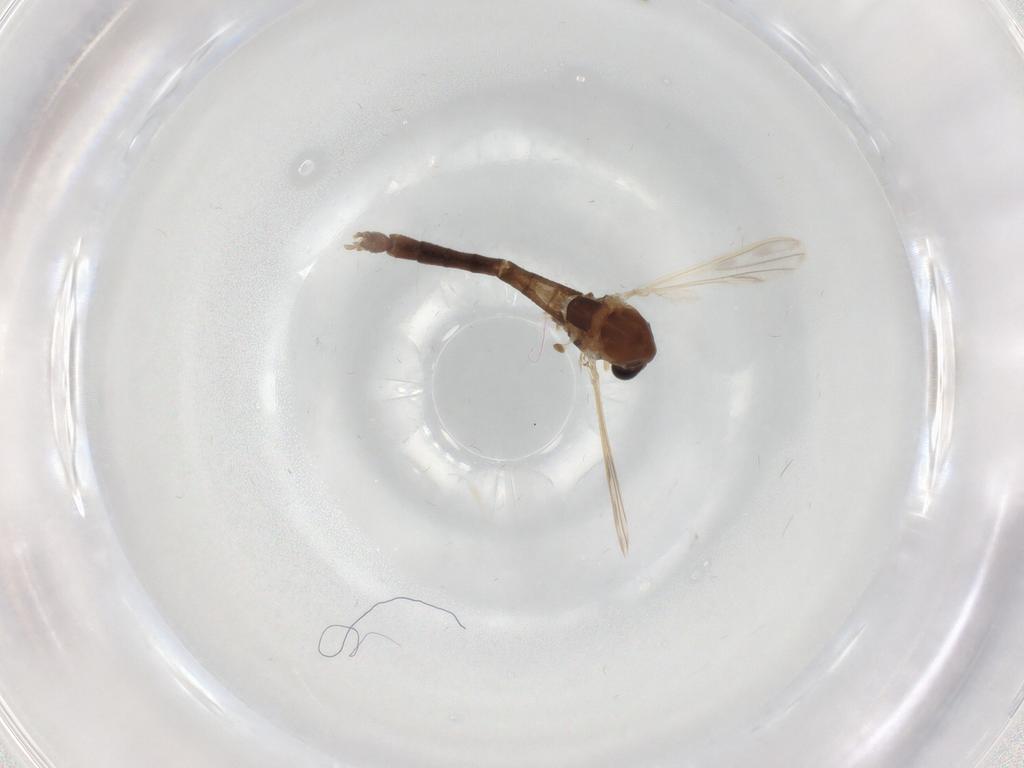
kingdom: Animalia
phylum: Arthropoda
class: Insecta
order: Diptera
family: Chironomidae
